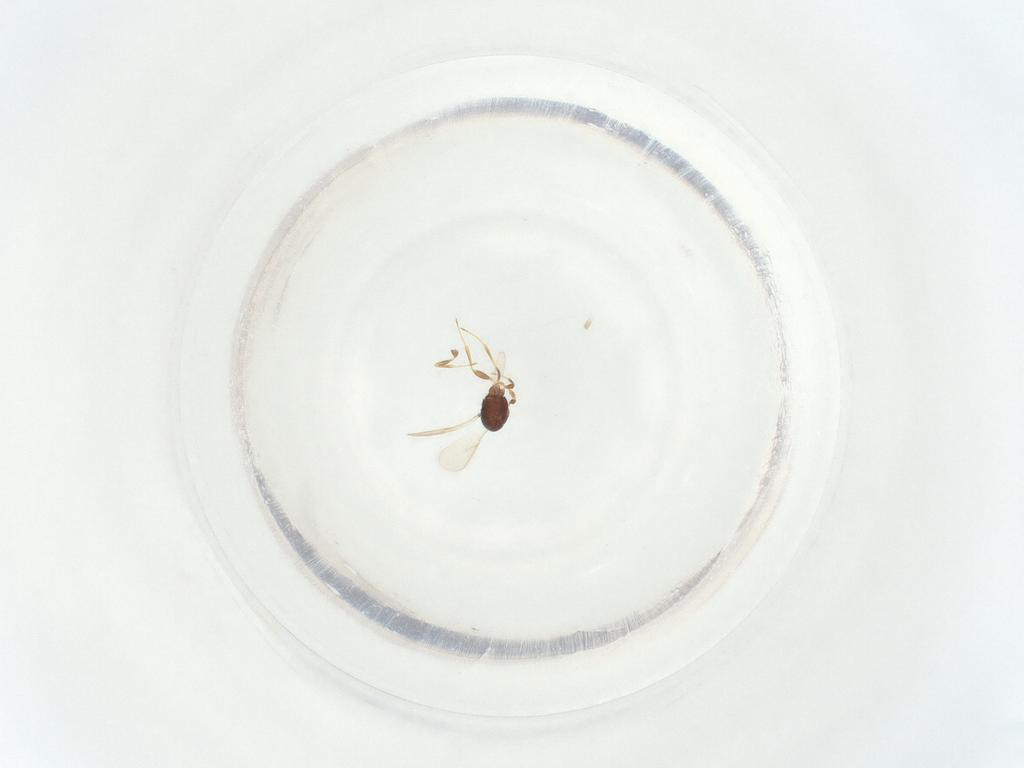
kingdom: Animalia
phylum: Arthropoda
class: Insecta
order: Hymenoptera
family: Scelionidae
